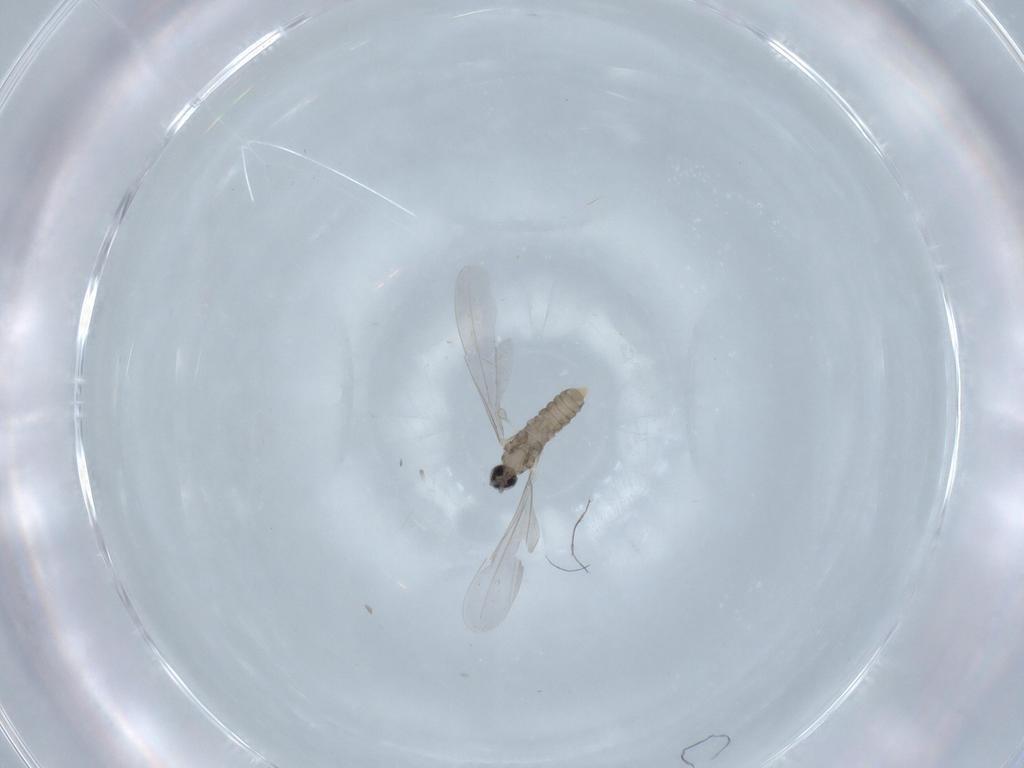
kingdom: Animalia
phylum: Arthropoda
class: Insecta
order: Diptera
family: Cecidomyiidae
